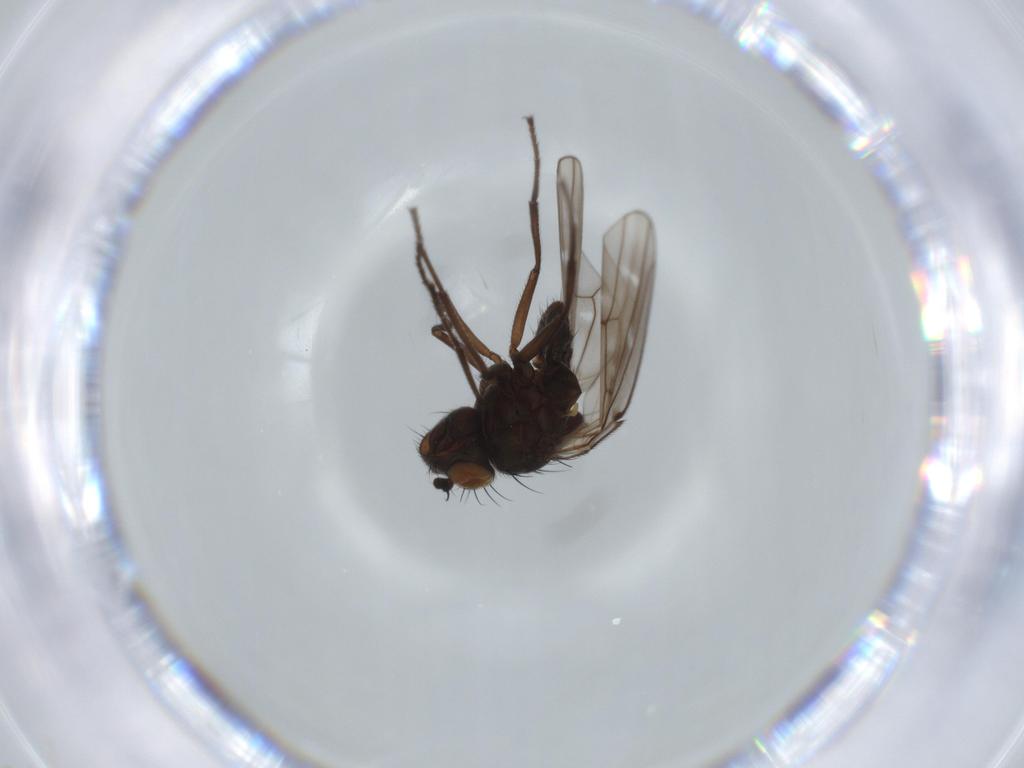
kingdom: Animalia
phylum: Arthropoda
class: Insecta
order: Diptera
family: Ephydridae
